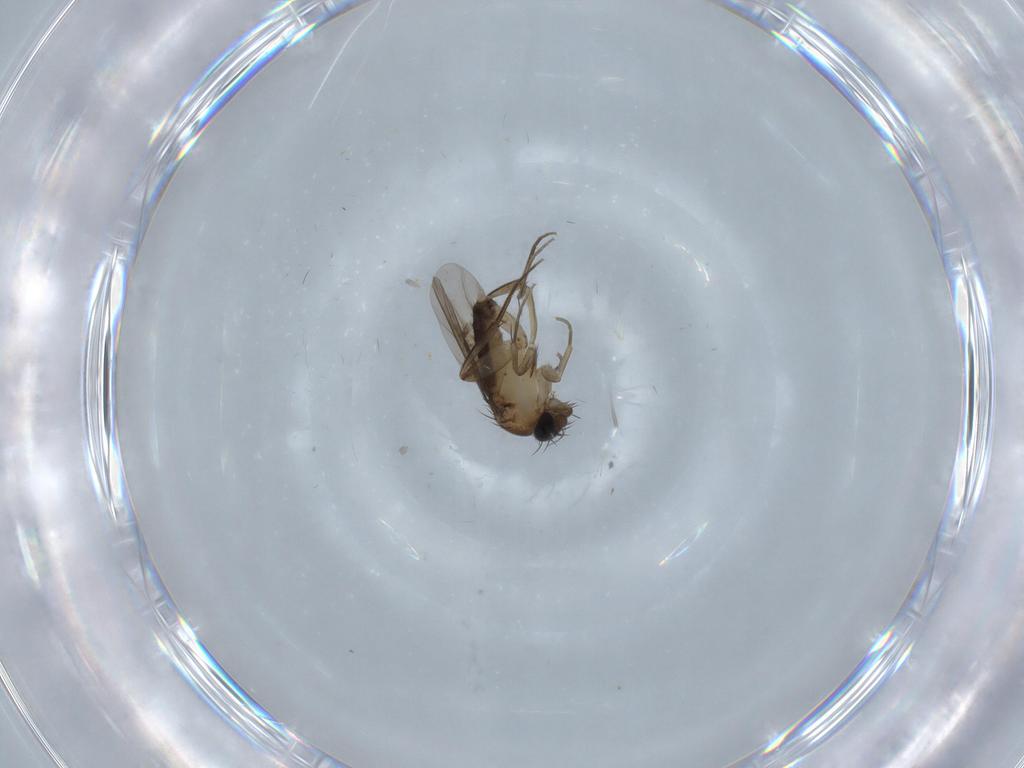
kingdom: Animalia
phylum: Arthropoda
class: Insecta
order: Diptera
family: Phoridae
